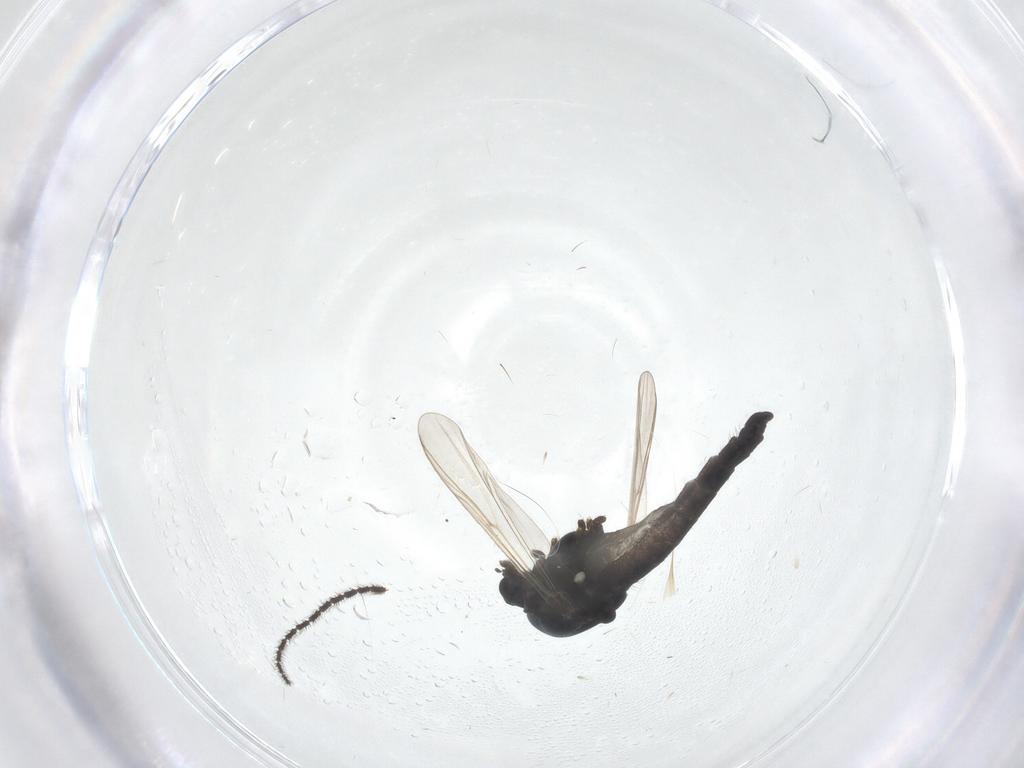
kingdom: Animalia
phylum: Arthropoda
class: Insecta
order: Diptera
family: Chironomidae
